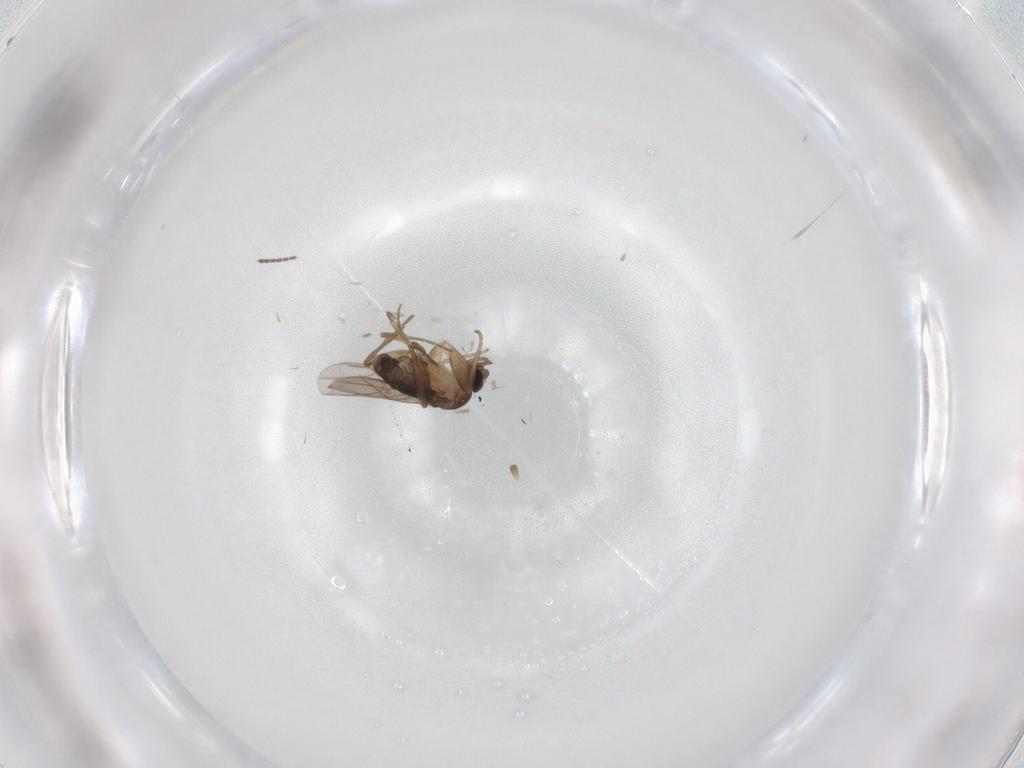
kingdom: Animalia
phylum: Arthropoda
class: Insecta
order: Diptera
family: Phoridae
